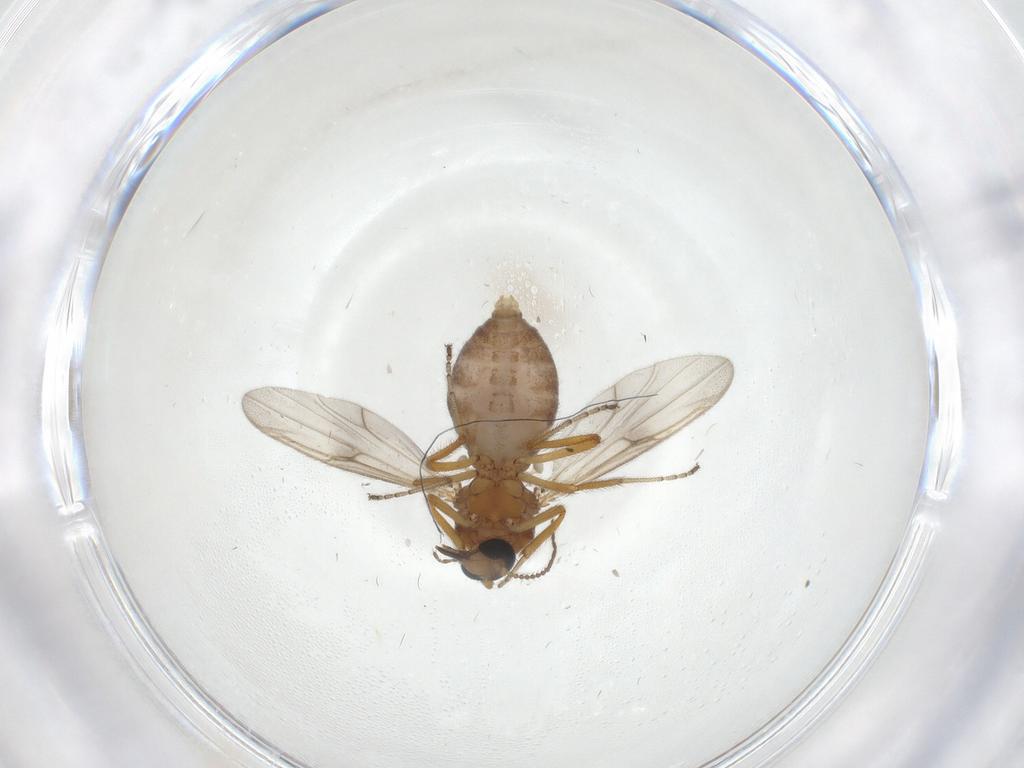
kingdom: Animalia
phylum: Arthropoda
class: Insecta
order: Diptera
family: Ceratopogonidae
